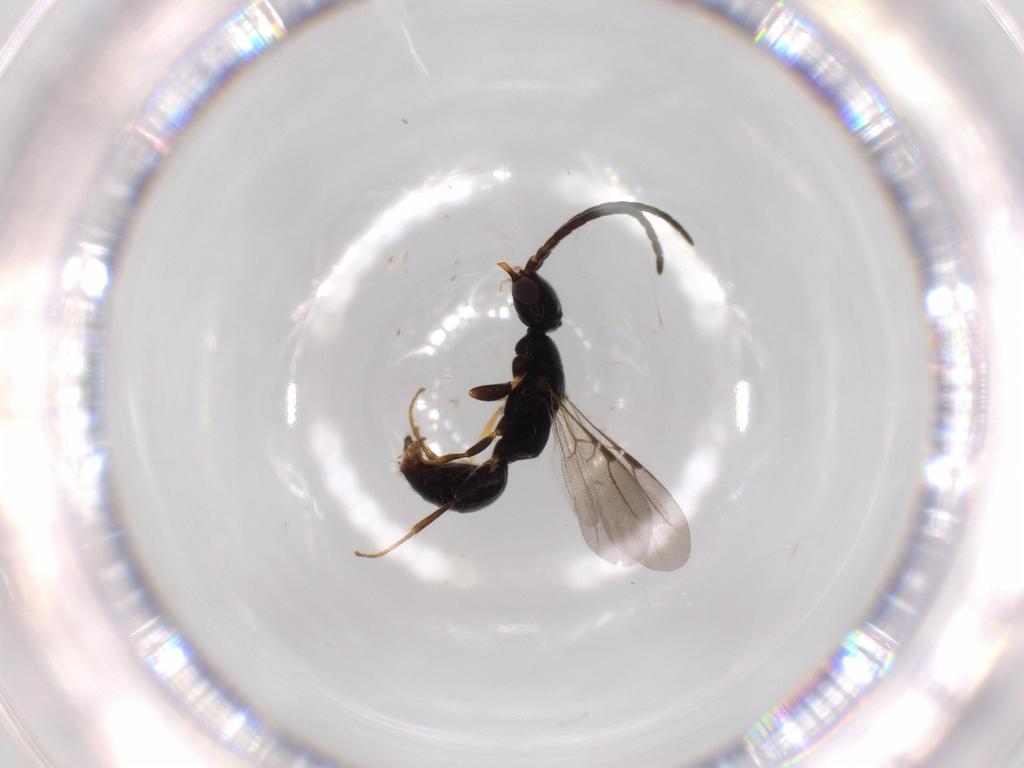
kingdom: Animalia
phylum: Arthropoda
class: Insecta
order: Hymenoptera
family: Bethylidae
